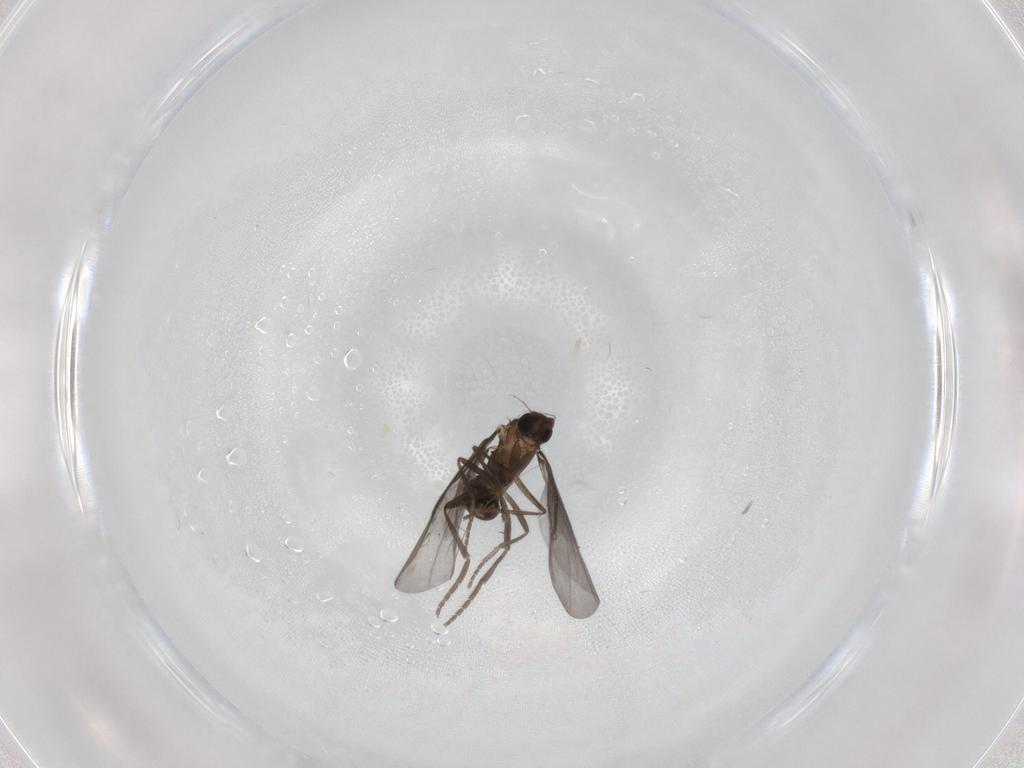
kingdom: Animalia
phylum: Arthropoda
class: Insecta
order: Diptera
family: Phoridae
